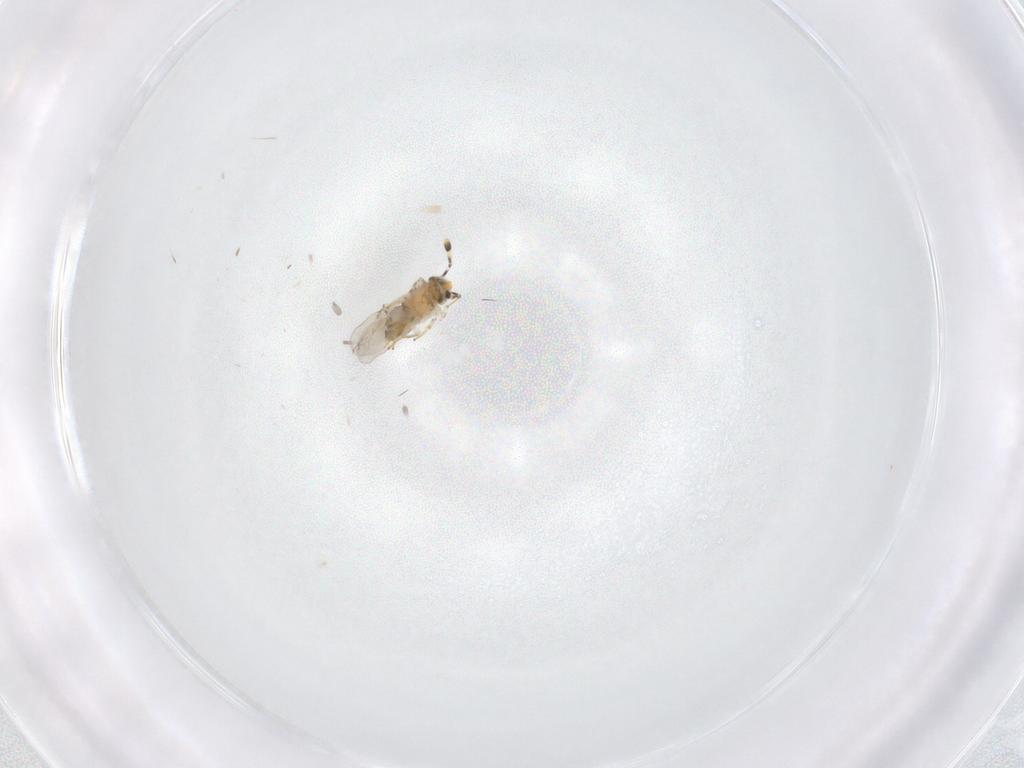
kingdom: Animalia
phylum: Arthropoda
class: Insecta
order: Hymenoptera
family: Encyrtidae
